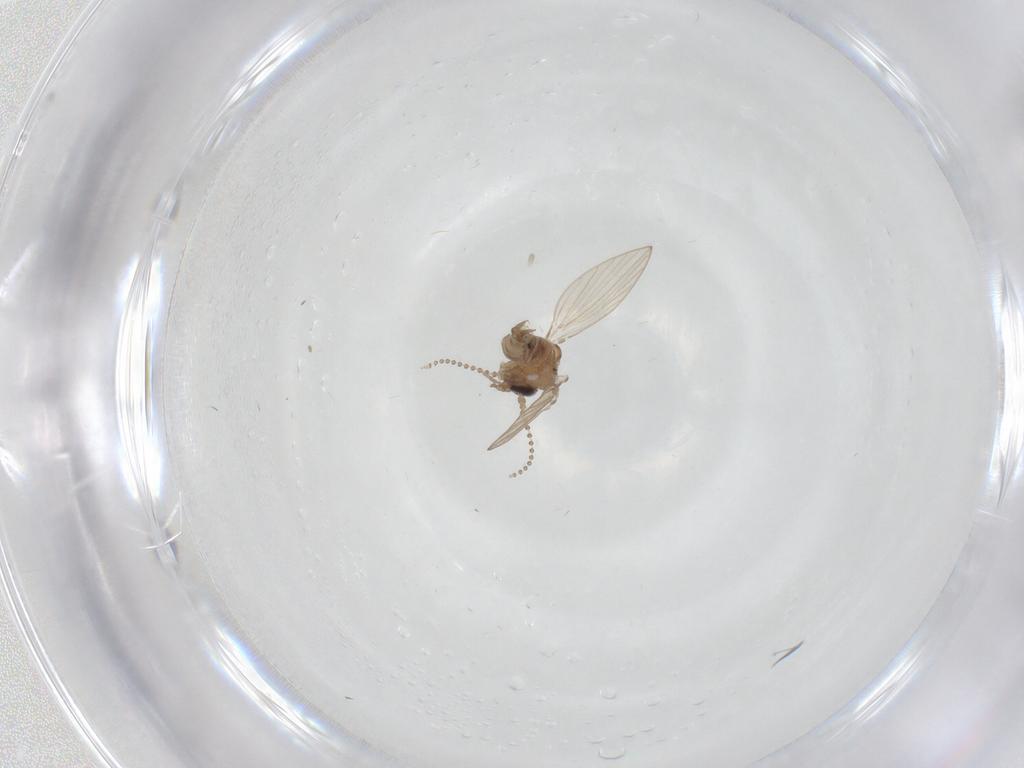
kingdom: Animalia
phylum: Arthropoda
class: Insecta
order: Diptera
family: Psychodidae
